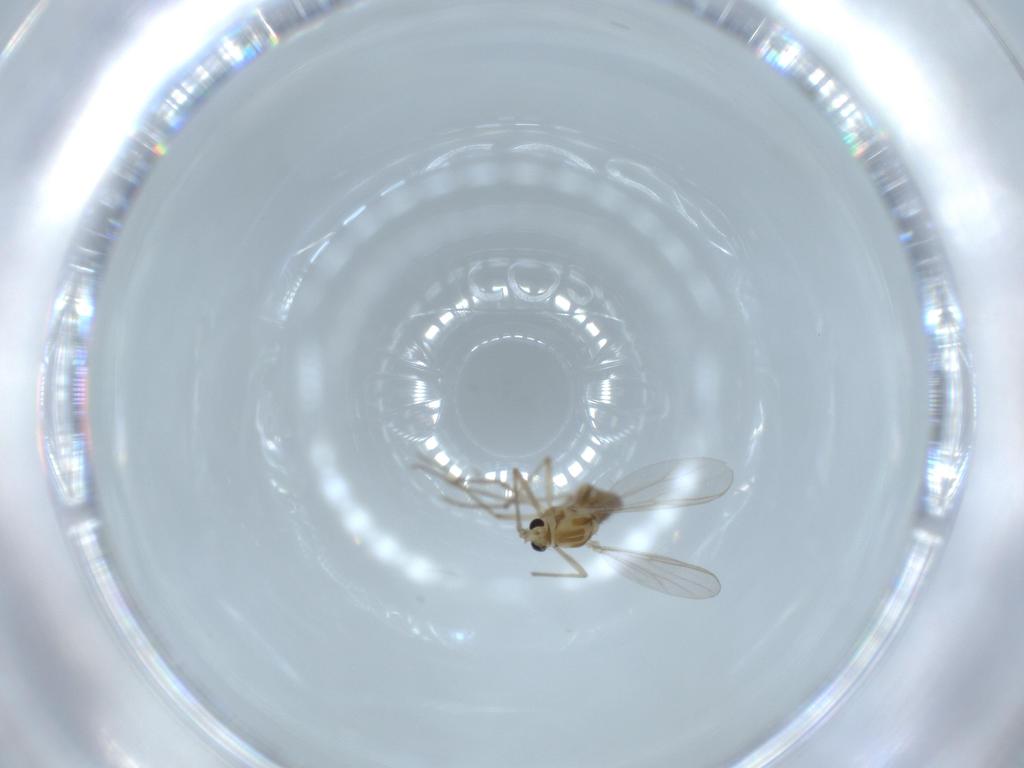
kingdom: Animalia
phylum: Arthropoda
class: Insecta
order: Diptera
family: Chironomidae
